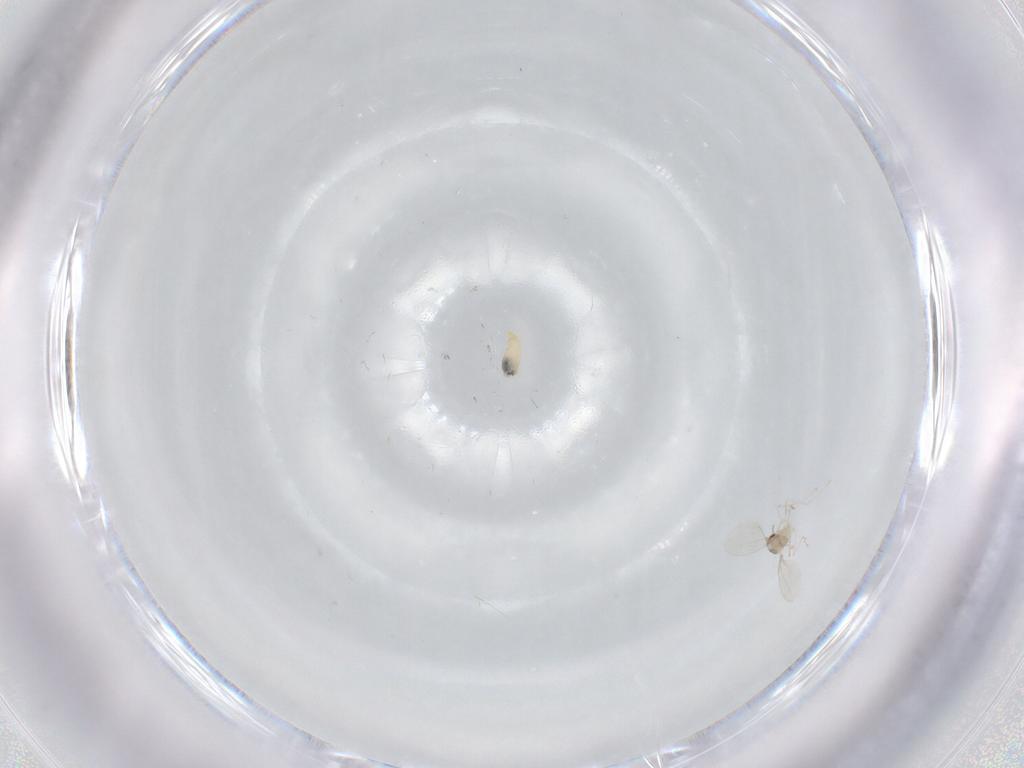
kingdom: Animalia
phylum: Arthropoda
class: Insecta
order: Diptera
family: Cecidomyiidae
